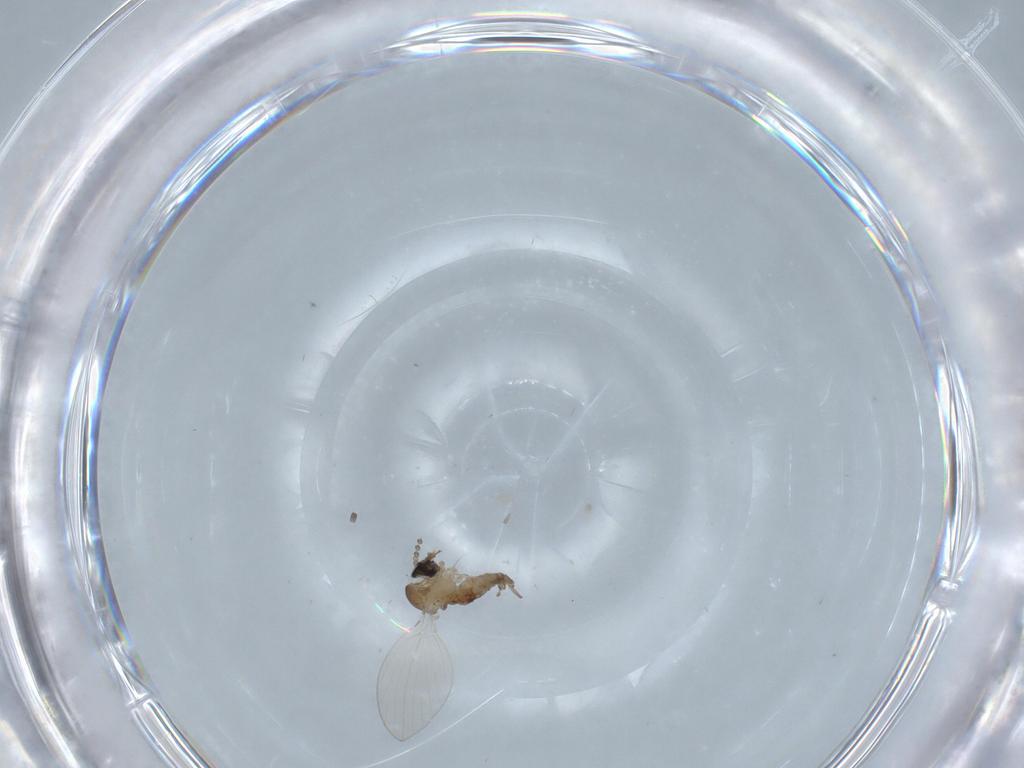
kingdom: Animalia
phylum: Arthropoda
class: Insecta
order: Diptera
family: Psychodidae
